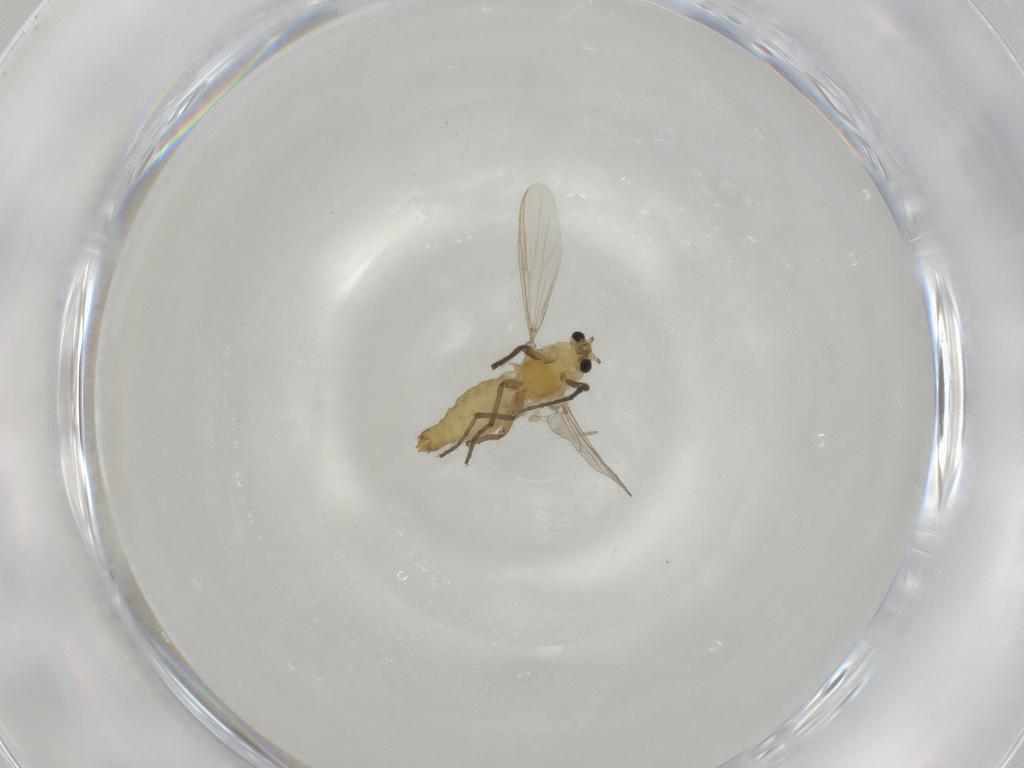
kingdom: Animalia
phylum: Arthropoda
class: Insecta
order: Diptera
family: Chironomidae
